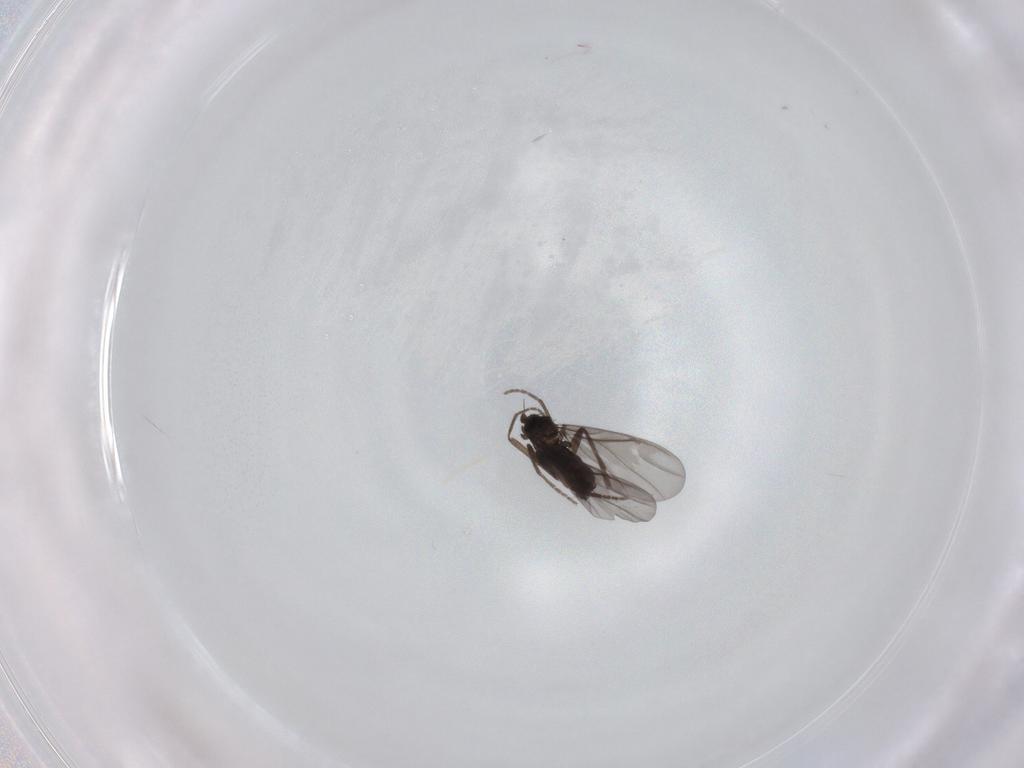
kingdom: Animalia
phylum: Arthropoda
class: Insecta
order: Diptera
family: Phoridae
